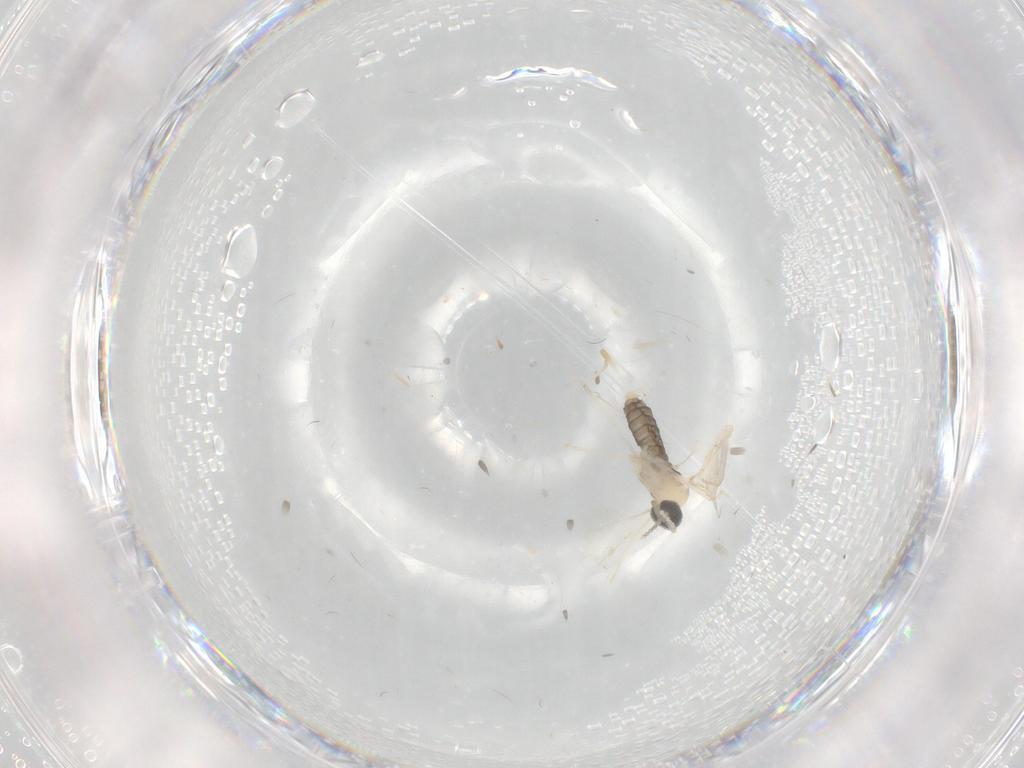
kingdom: Animalia
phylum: Arthropoda
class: Insecta
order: Diptera
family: Cecidomyiidae
